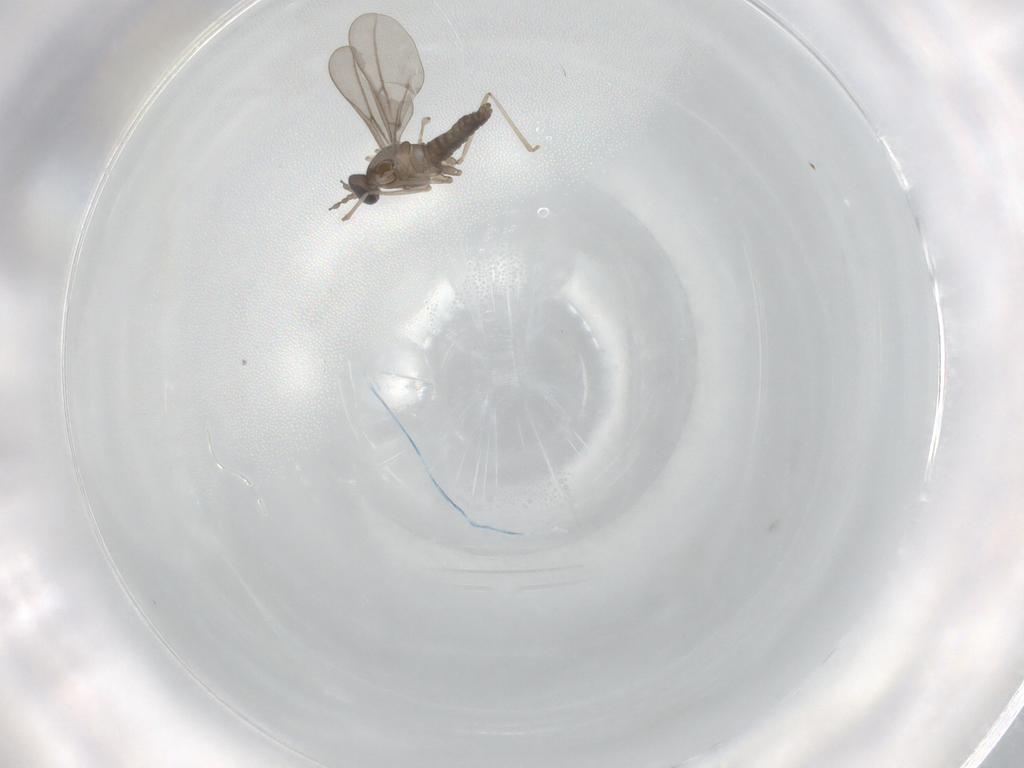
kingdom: Animalia
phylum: Arthropoda
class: Insecta
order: Diptera
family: Cecidomyiidae
